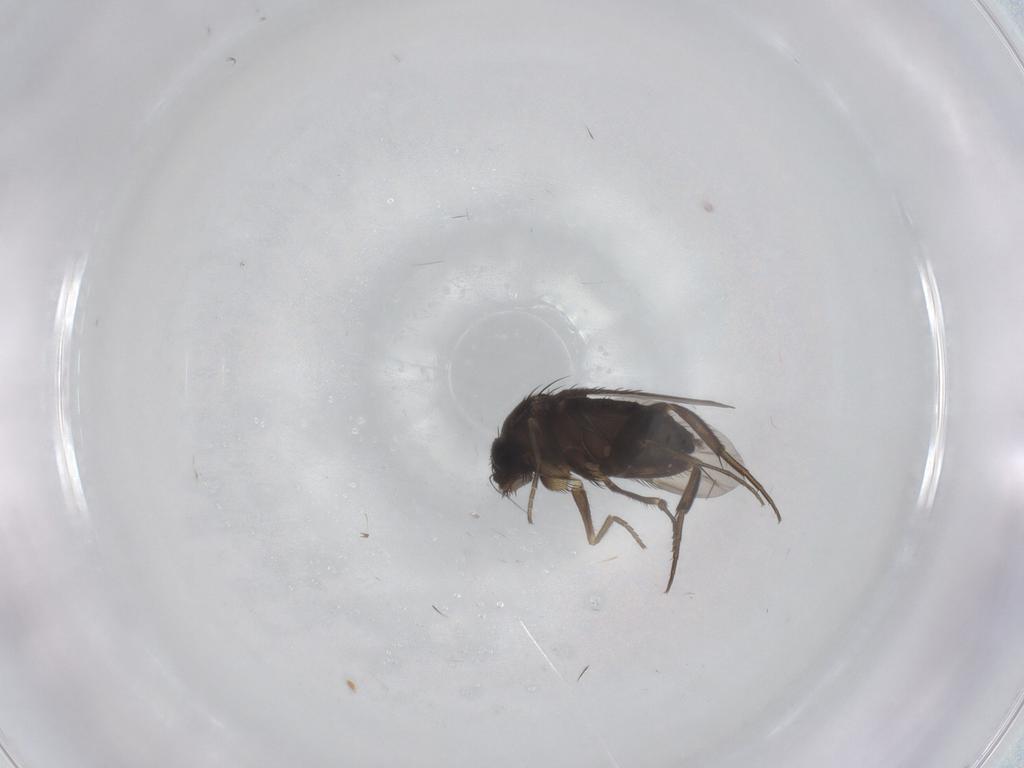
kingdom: Animalia
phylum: Arthropoda
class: Insecta
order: Diptera
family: Phoridae
